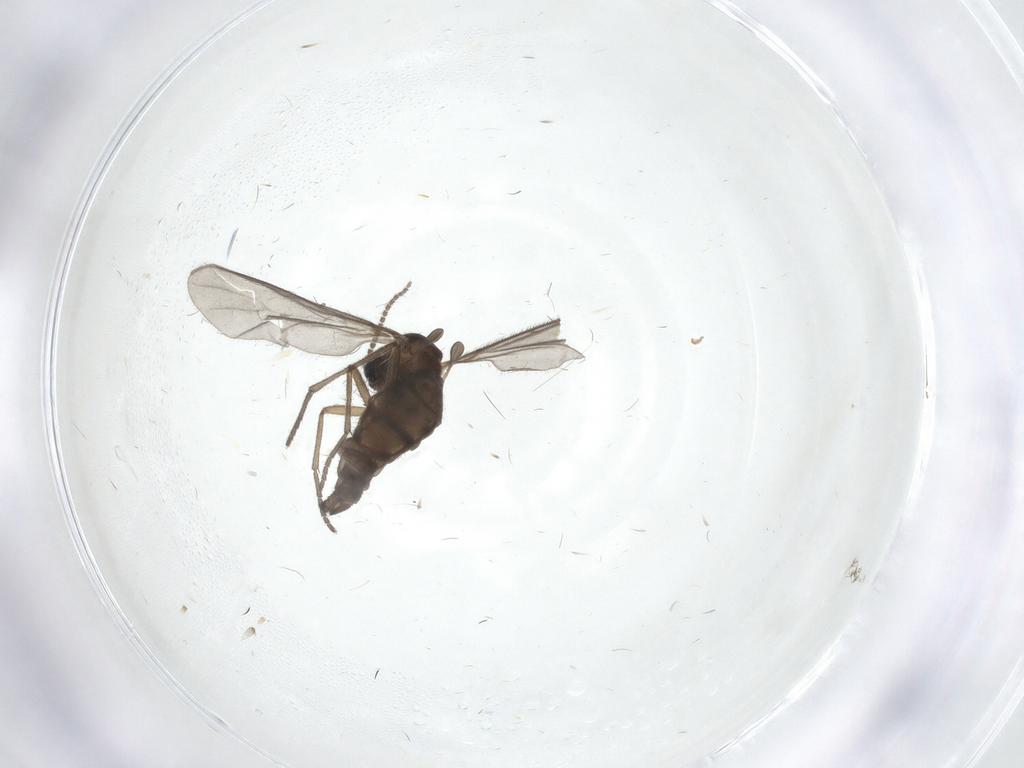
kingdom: Animalia
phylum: Arthropoda
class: Insecta
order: Diptera
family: Sciaridae
